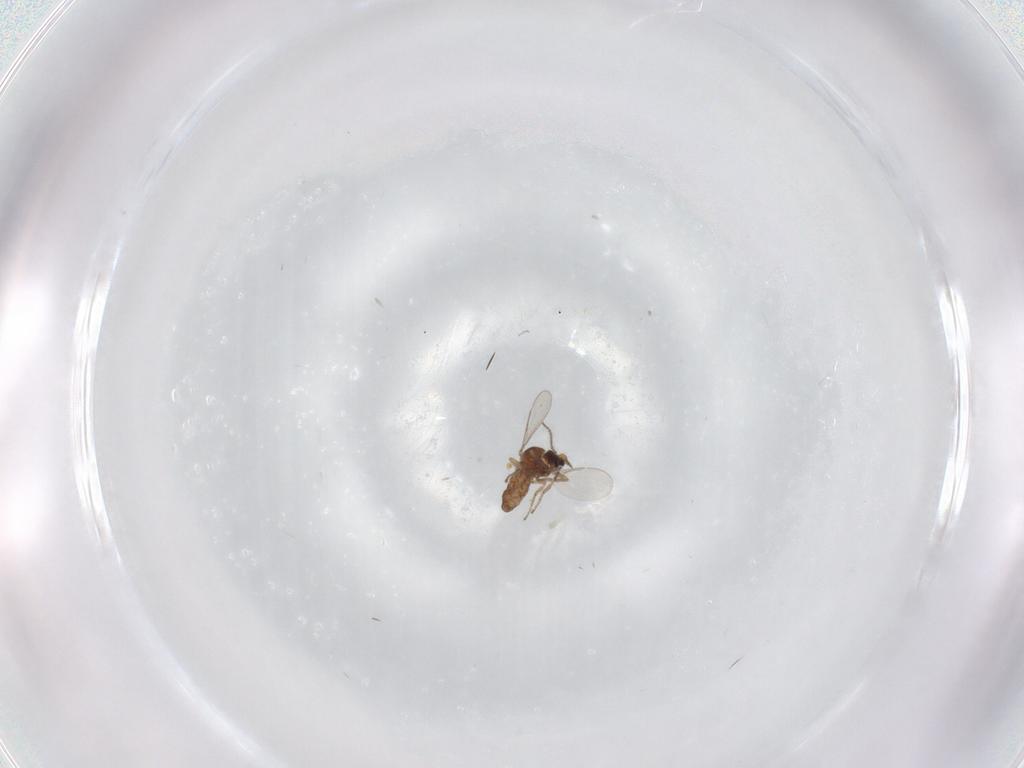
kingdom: Animalia
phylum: Arthropoda
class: Insecta
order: Diptera
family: Ceratopogonidae
